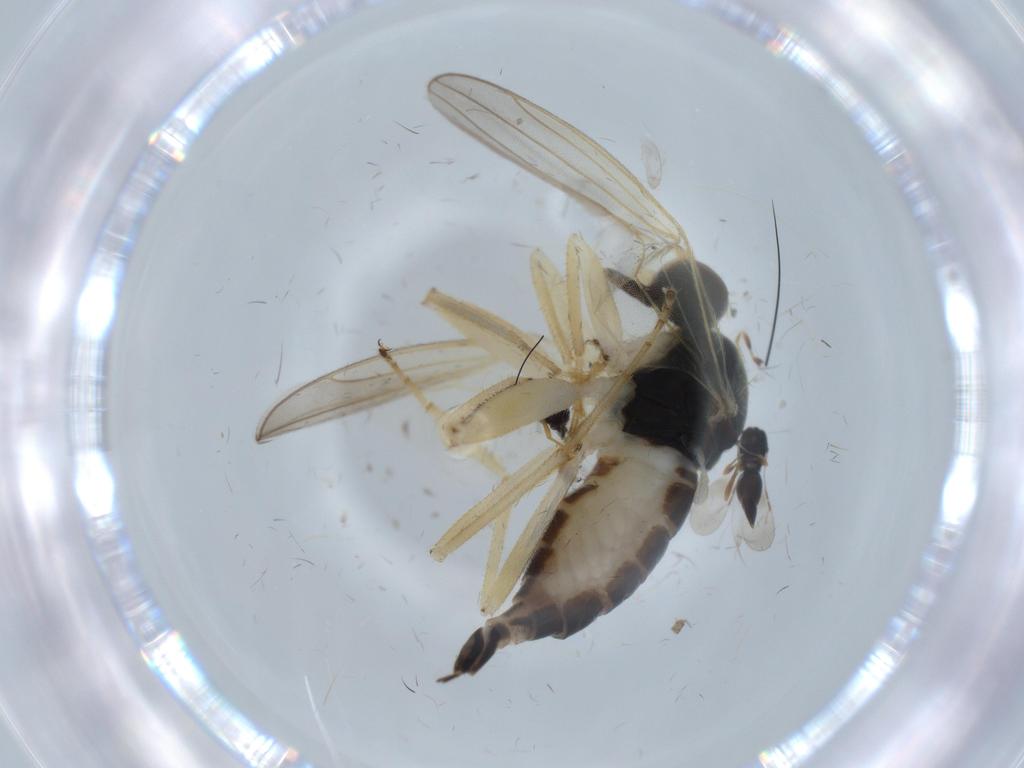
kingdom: Animalia
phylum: Arthropoda
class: Insecta
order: Diptera
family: Hybotidae
